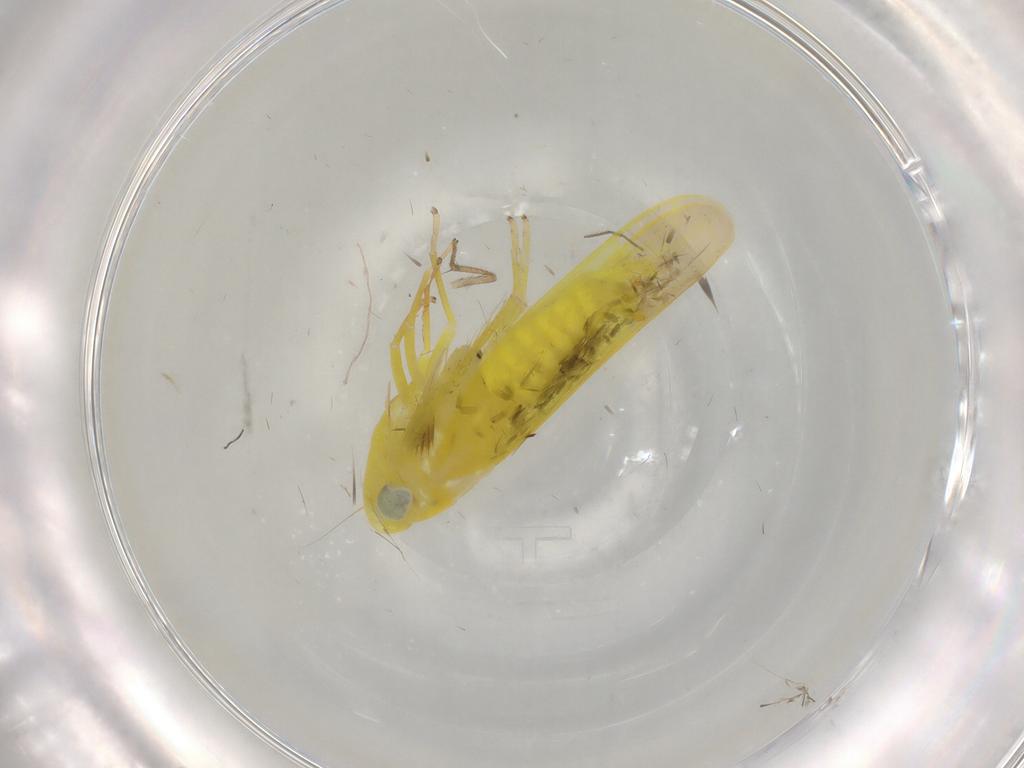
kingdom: Animalia
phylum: Arthropoda
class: Insecta
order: Hemiptera
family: Cicadellidae
